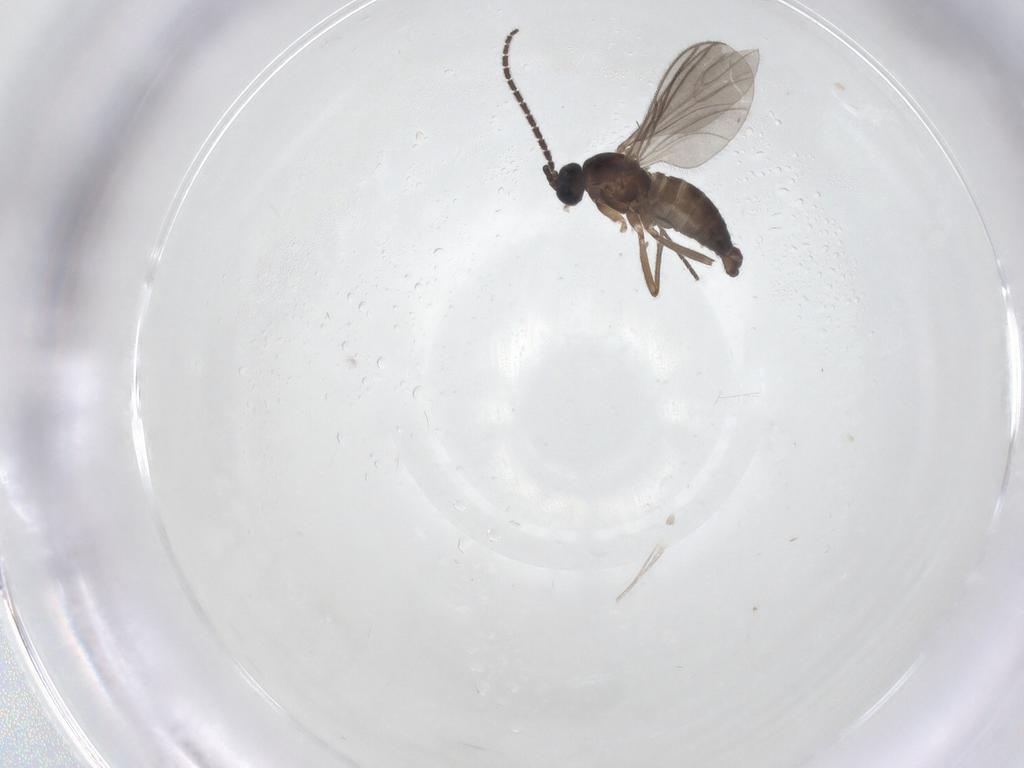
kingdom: Animalia
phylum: Arthropoda
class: Insecta
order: Diptera
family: Sciaridae
